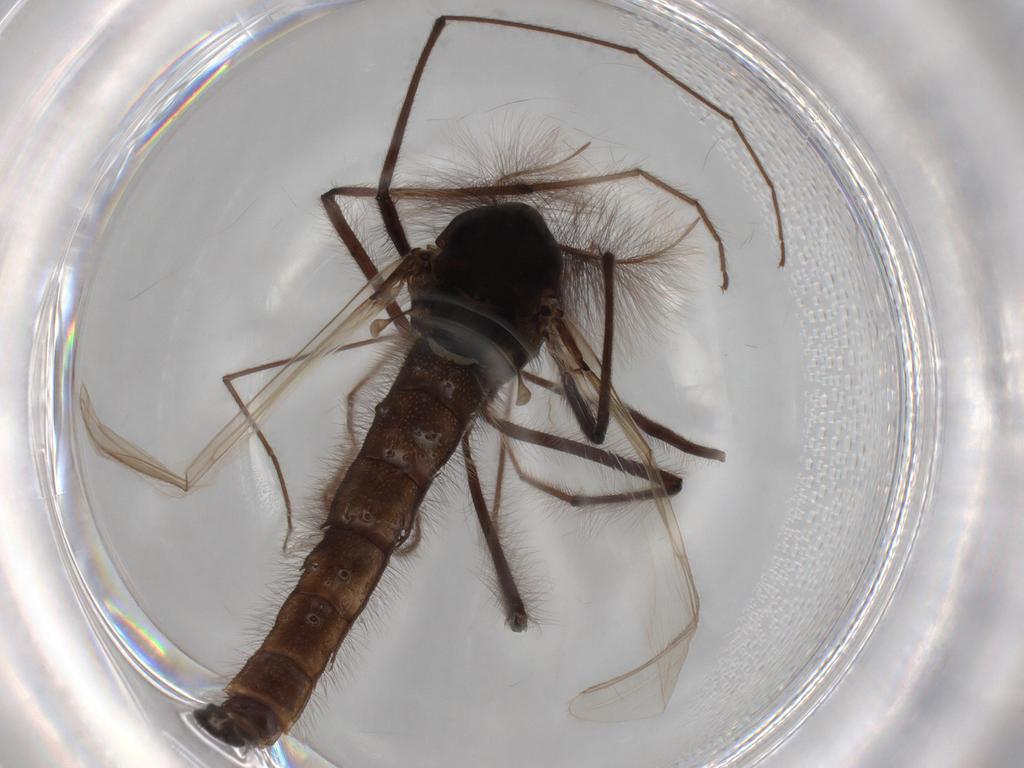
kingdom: Animalia
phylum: Arthropoda
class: Insecta
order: Diptera
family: Chironomidae
